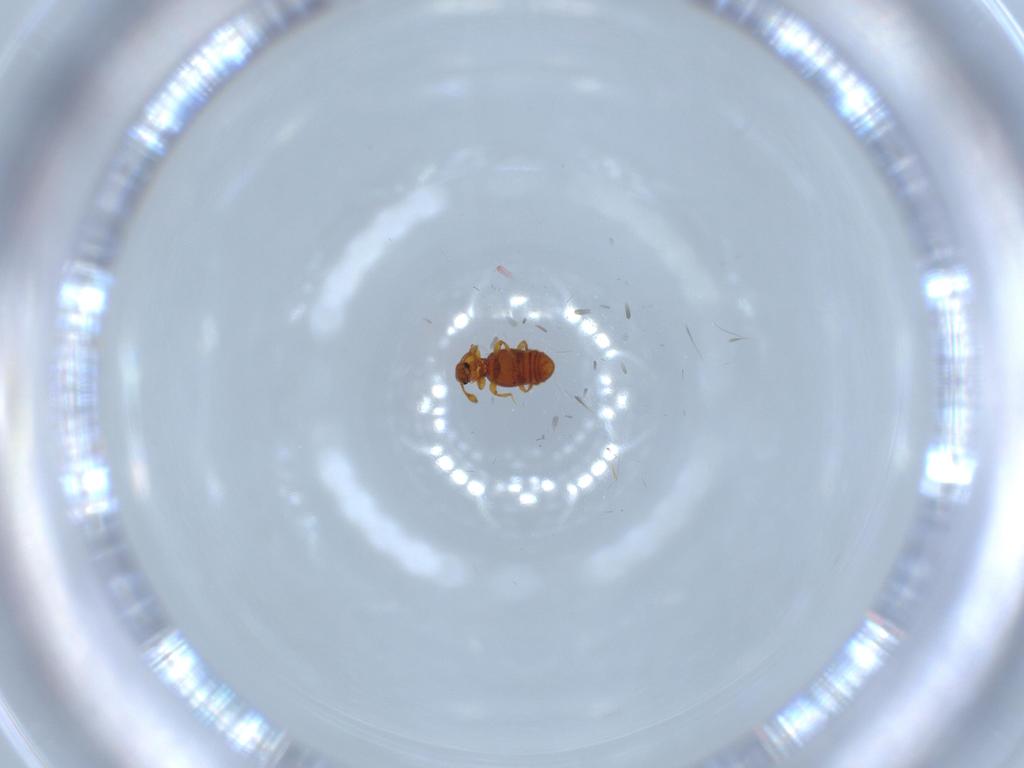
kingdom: Animalia
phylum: Arthropoda
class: Insecta
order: Coleoptera
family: Staphylinidae
